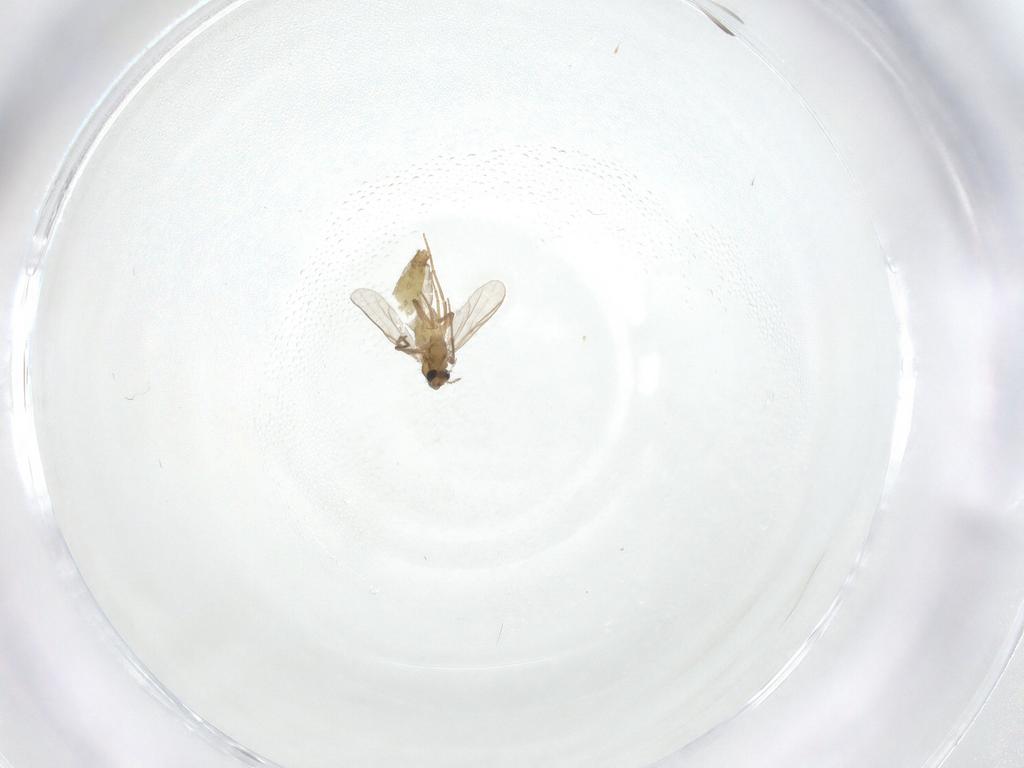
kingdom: Animalia
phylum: Arthropoda
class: Insecta
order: Diptera
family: Chironomidae
